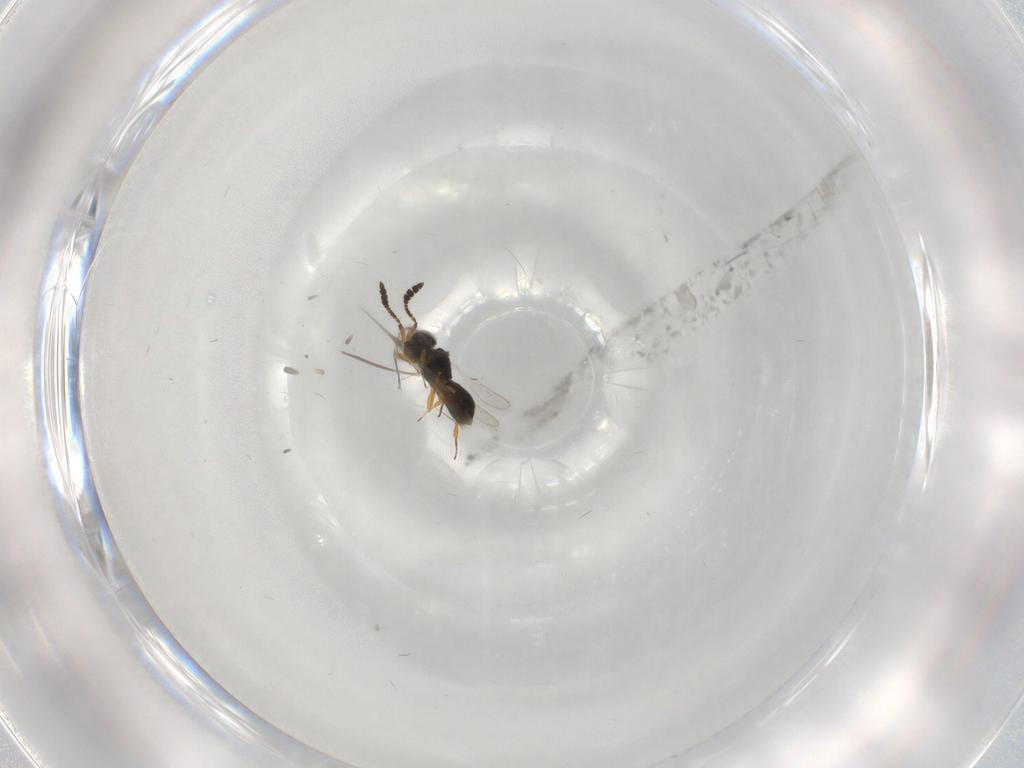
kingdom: Animalia
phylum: Arthropoda
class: Insecta
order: Hymenoptera
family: Scelionidae
